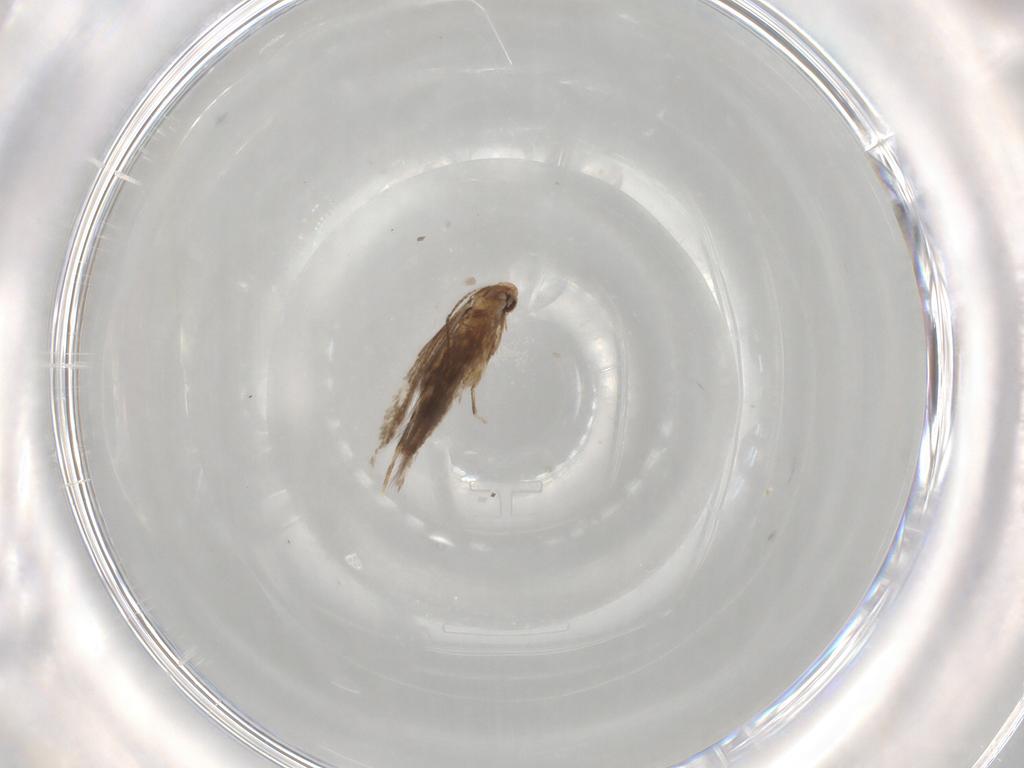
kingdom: Animalia
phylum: Arthropoda
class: Insecta
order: Lepidoptera
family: Gracillariidae
